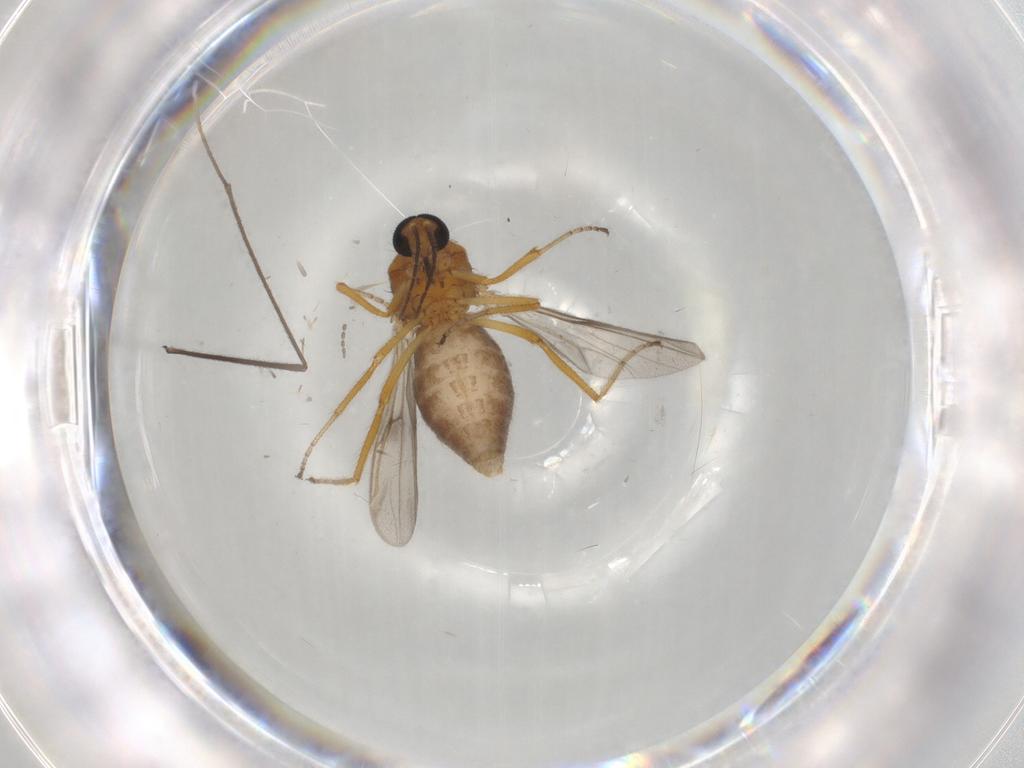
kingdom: Animalia
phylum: Arthropoda
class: Insecta
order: Diptera
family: Ceratopogonidae
